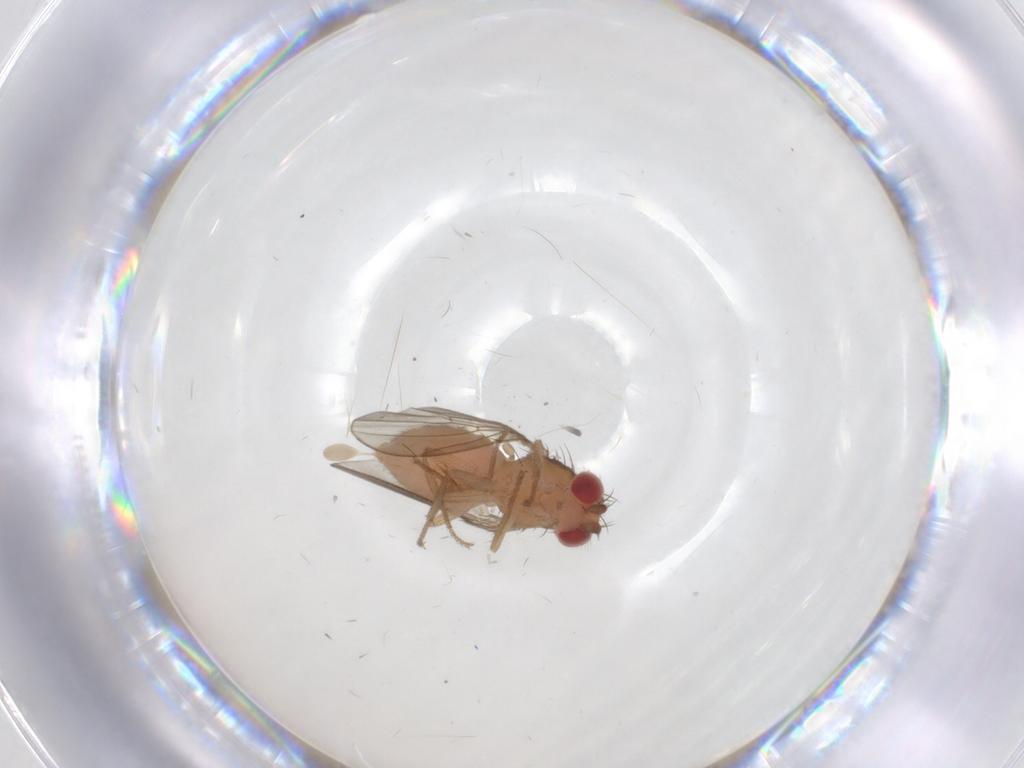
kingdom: Animalia
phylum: Arthropoda
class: Insecta
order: Diptera
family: Drosophilidae
